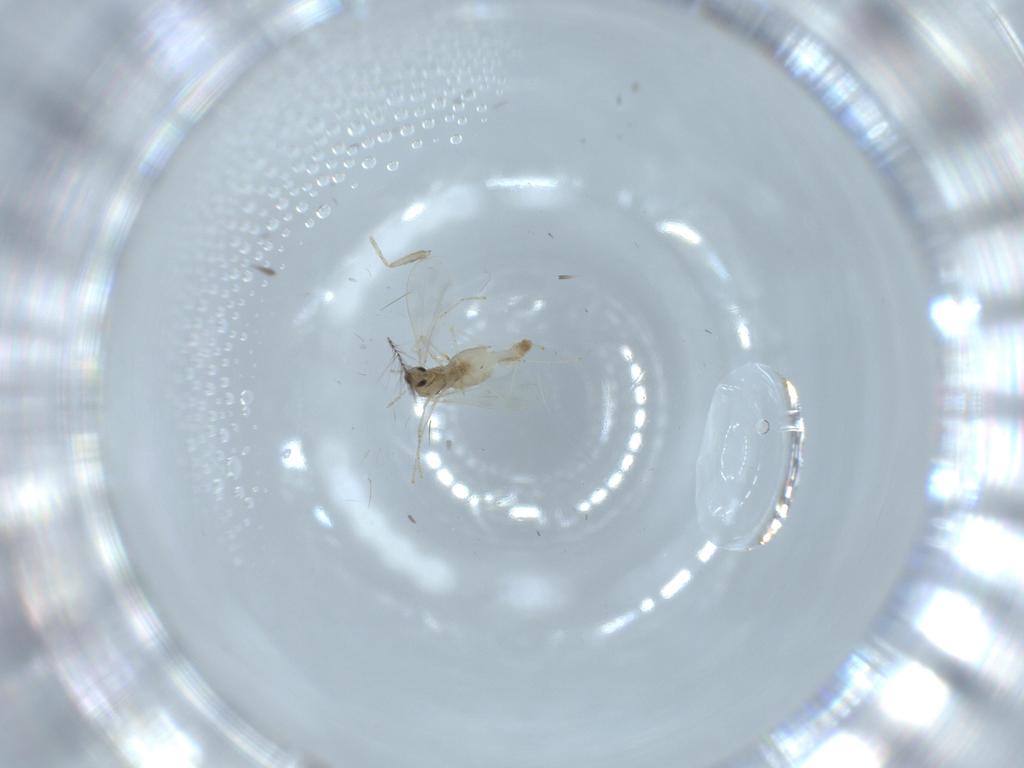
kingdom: Animalia
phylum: Arthropoda
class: Insecta
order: Diptera
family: Cecidomyiidae
